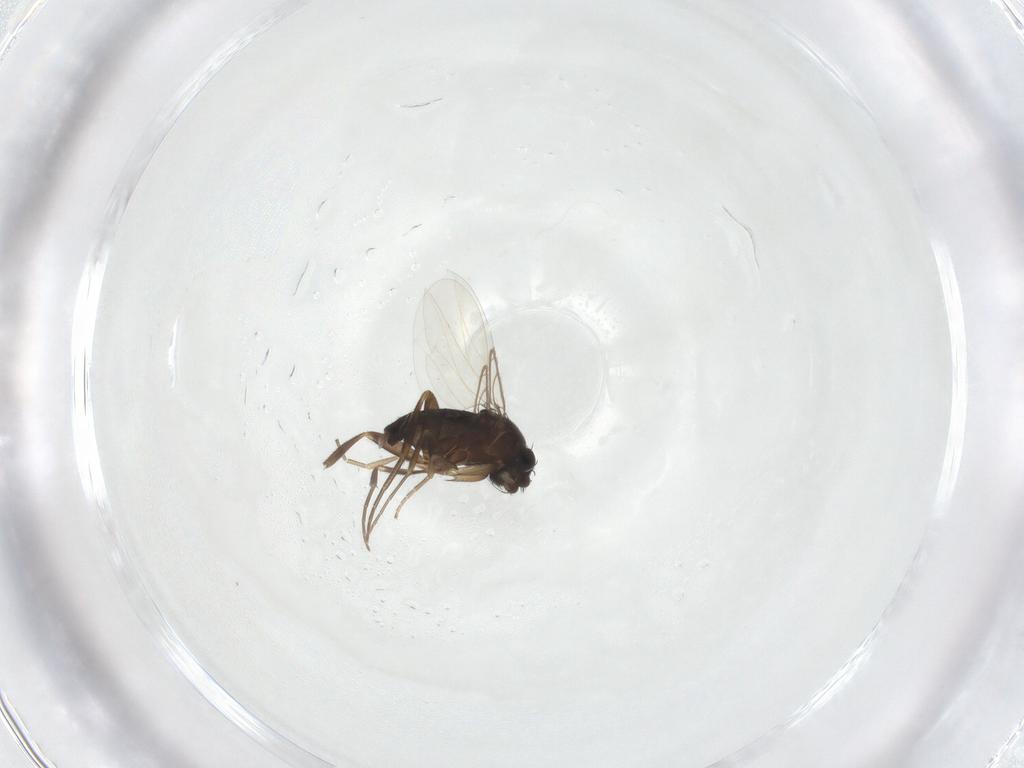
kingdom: Animalia
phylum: Arthropoda
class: Insecta
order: Diptera
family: Phoridae
